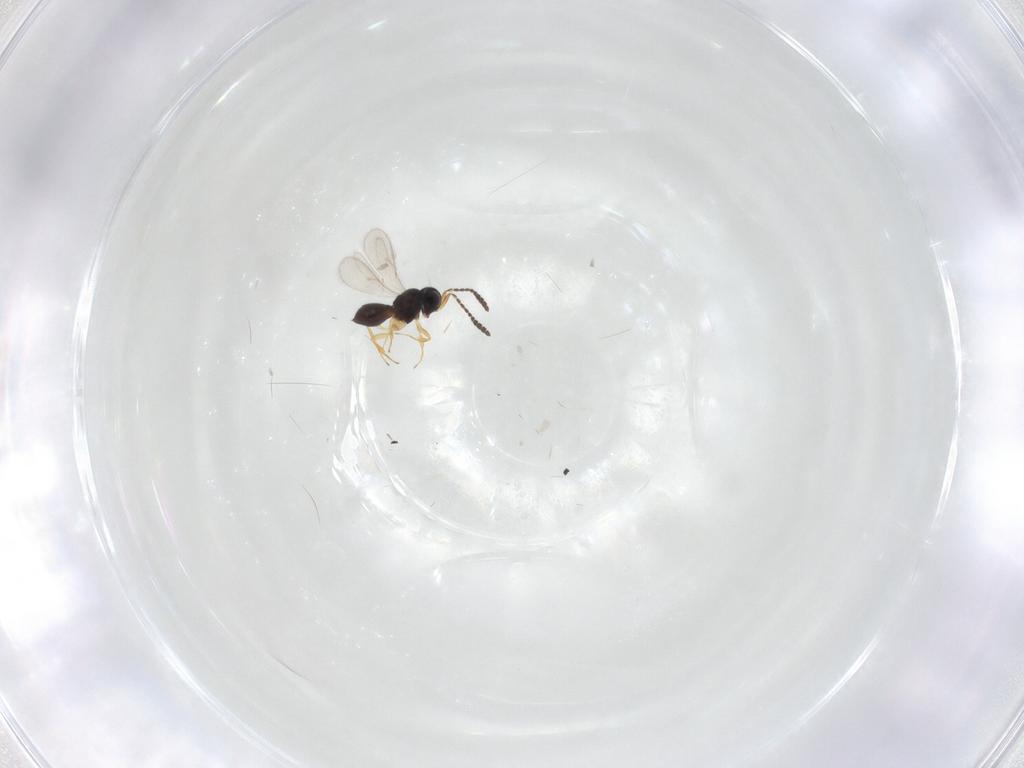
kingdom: Animalia
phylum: Arthropoda
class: Insecta
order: Hymenoptera
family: Scelionidae
